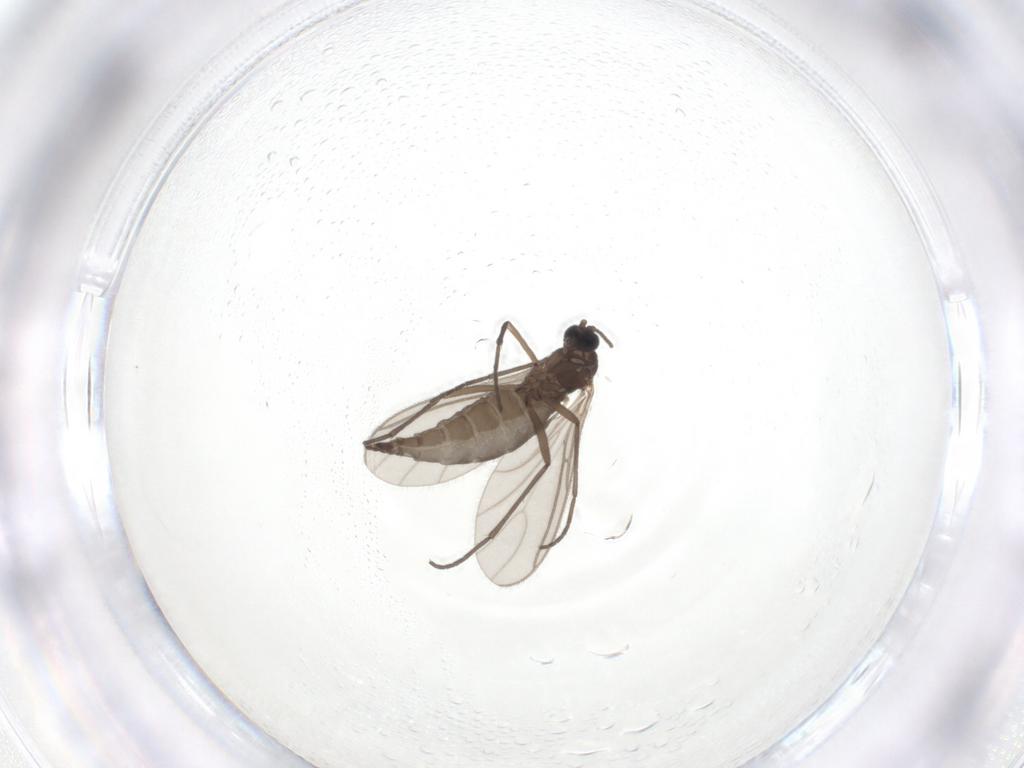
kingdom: Animalia
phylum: Arthropoda
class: Insecta
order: Diptera
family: Sciaridae
